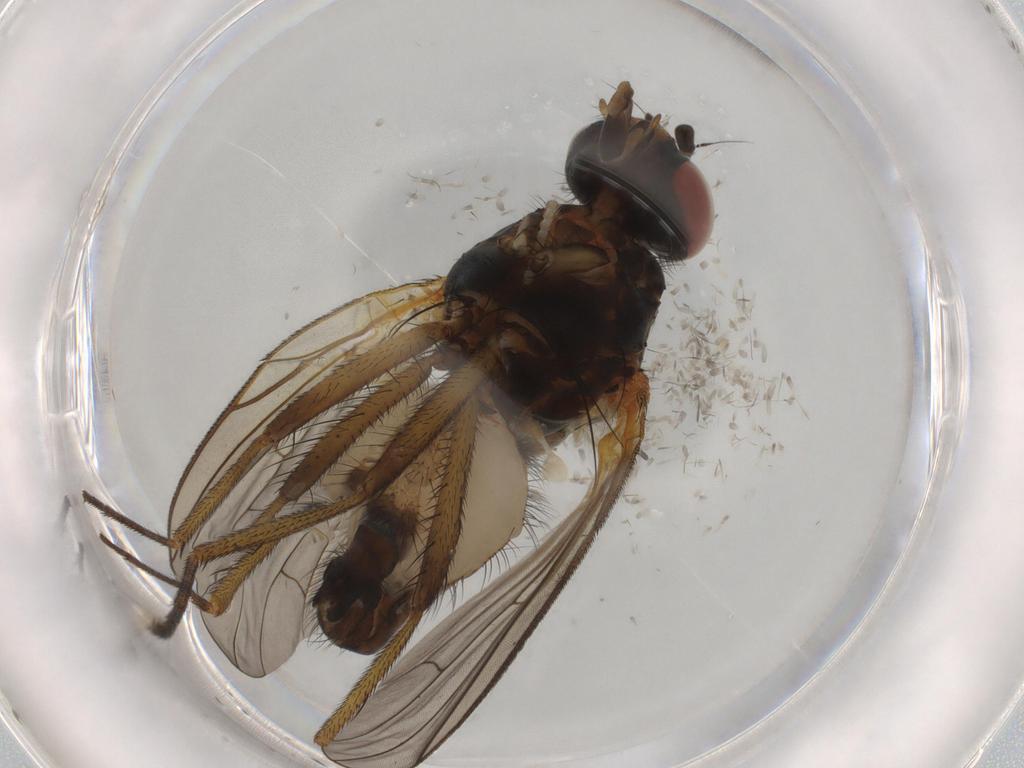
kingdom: Animalia
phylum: Arthropoda
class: Insecta
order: Diptera
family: Anthomyiidae
